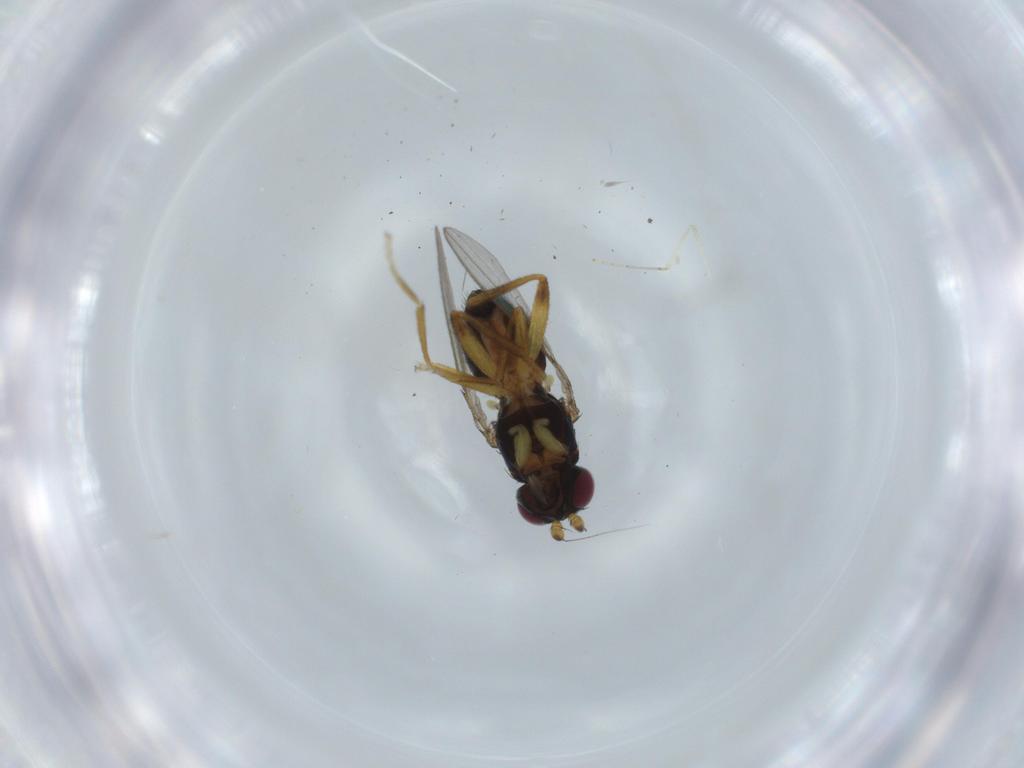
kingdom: Animalia
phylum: Arthropoda
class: Insecta
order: Diptera
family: Cypselosomatidae
